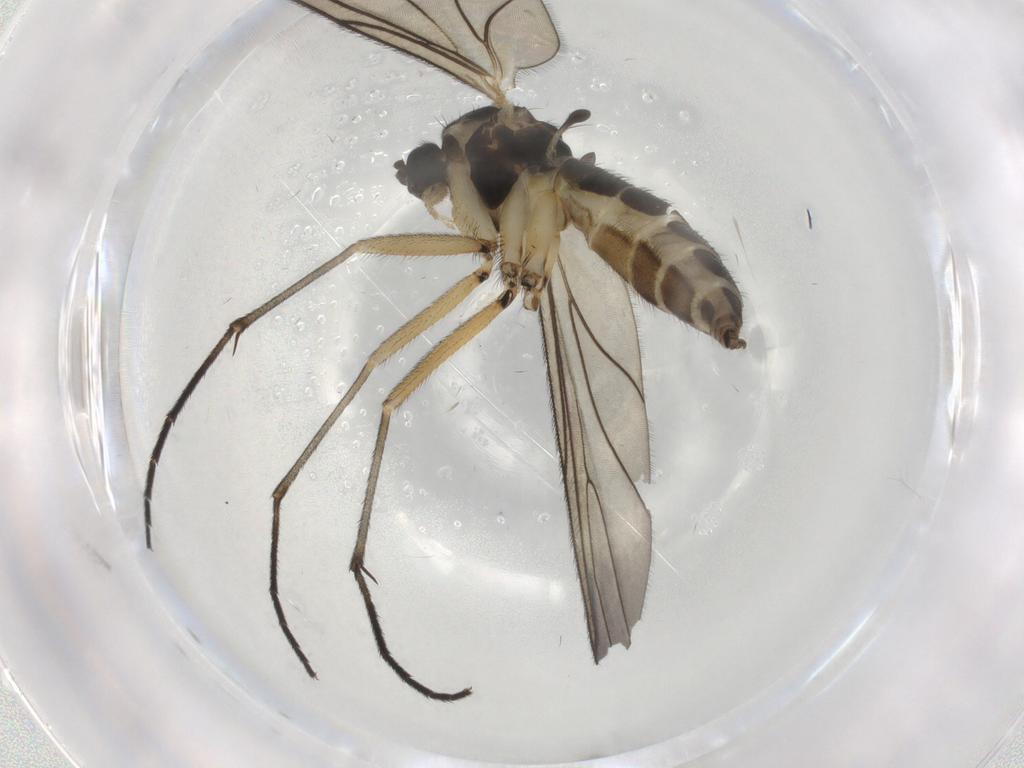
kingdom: Animalia
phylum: Arthropoda
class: Insecta
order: Diptera
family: Sciaridae
